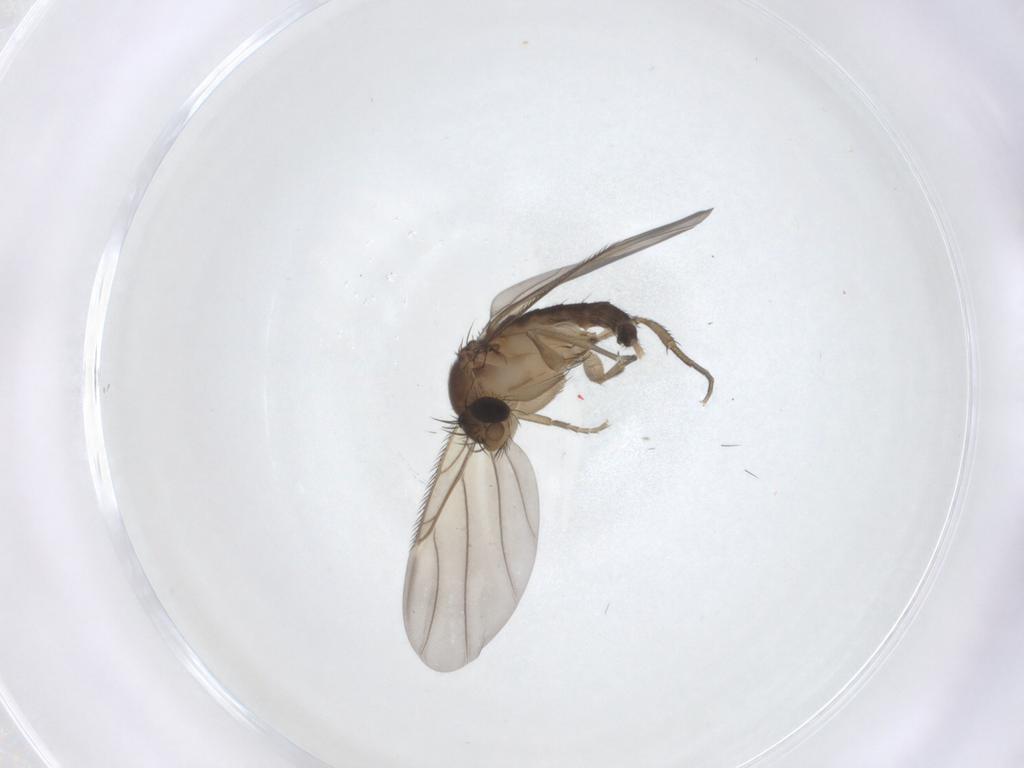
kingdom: Animalia
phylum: Arthropoda
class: Insecta
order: Diptera
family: Phoridae
